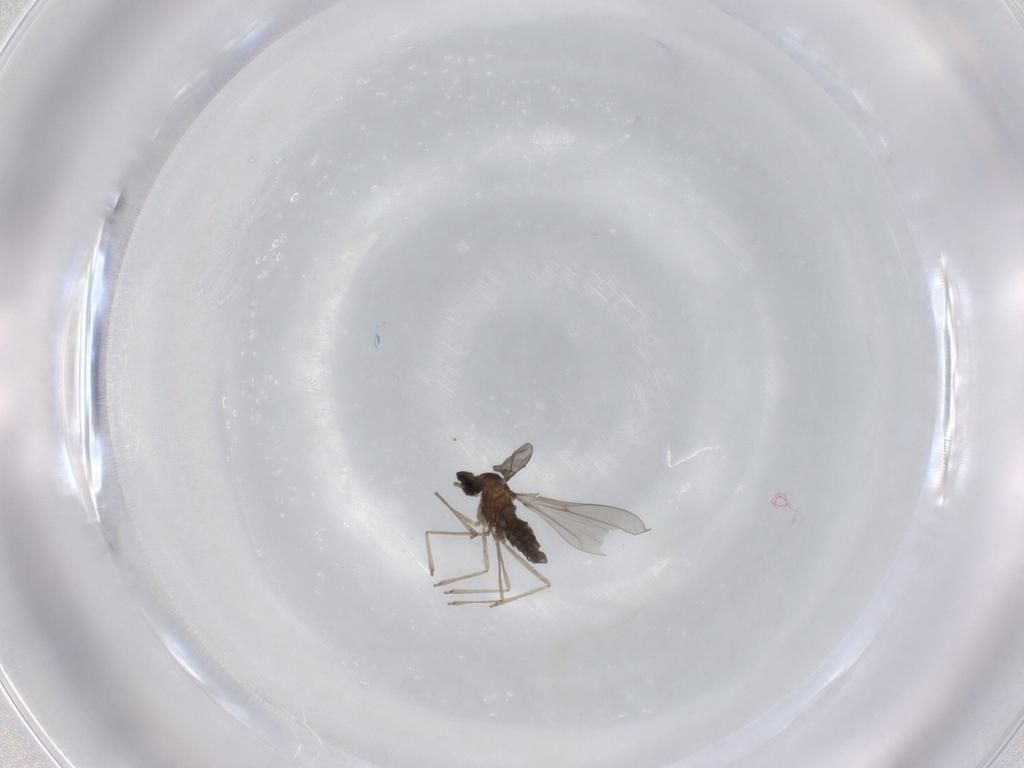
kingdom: Animalia
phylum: Arthropoda
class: Insecta
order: Diptera
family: Cecidomyiidae
